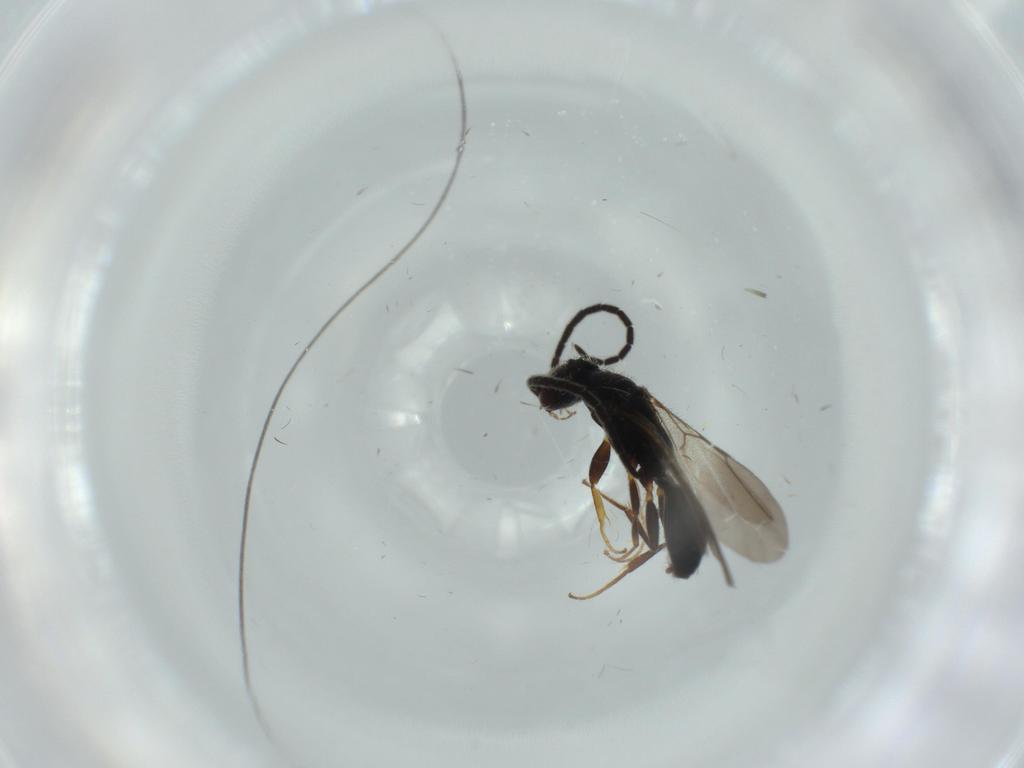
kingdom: Animalia
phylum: Arthropoda
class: Insecta
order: Hymenoptera
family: Bethylidae
